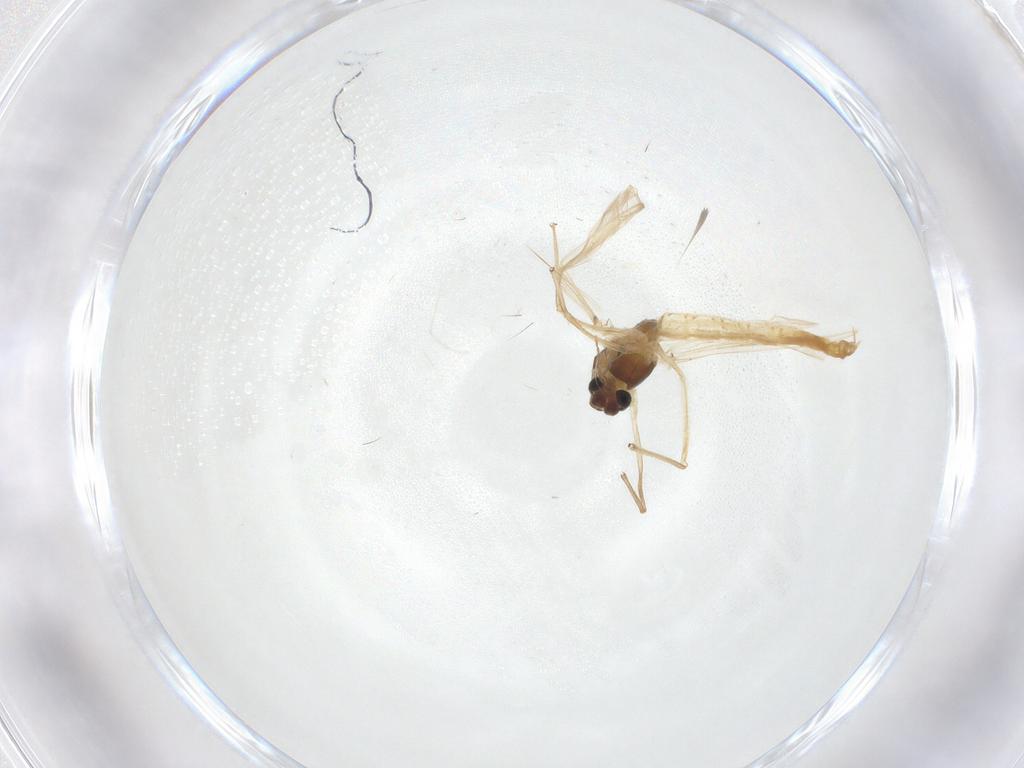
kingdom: Animalia
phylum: Arthropoda
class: Insecta
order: Diptera
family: Chironomidae
